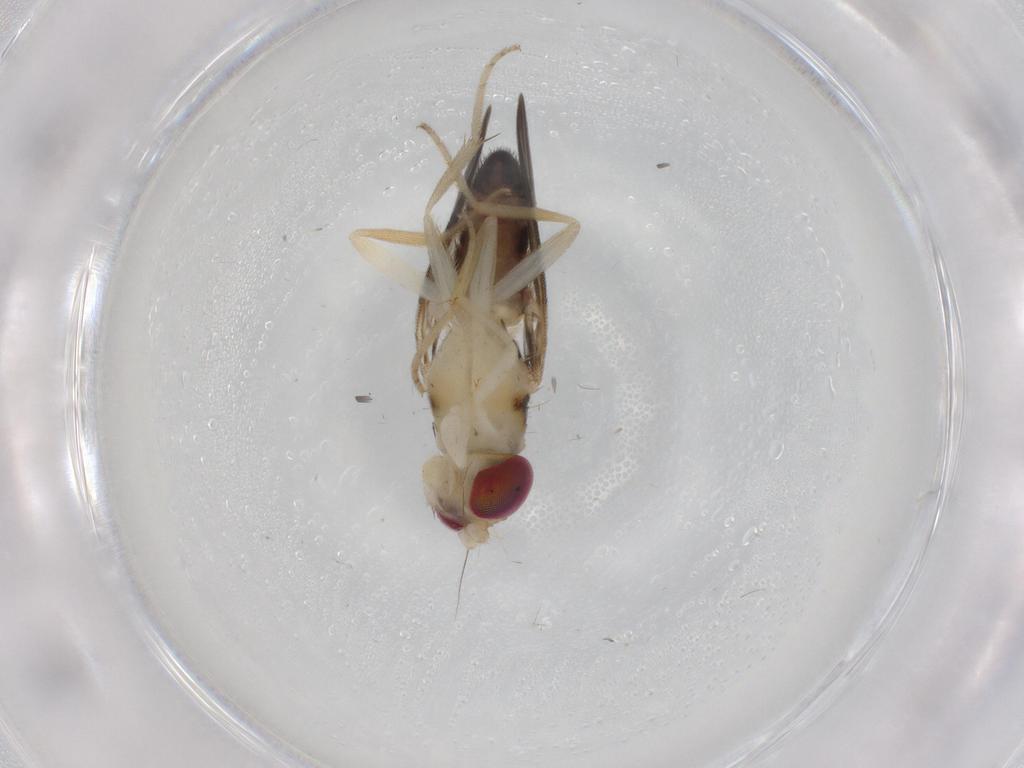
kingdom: Animalia
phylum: Arthropoda
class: Insecta
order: Diptera
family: Clusiidae
